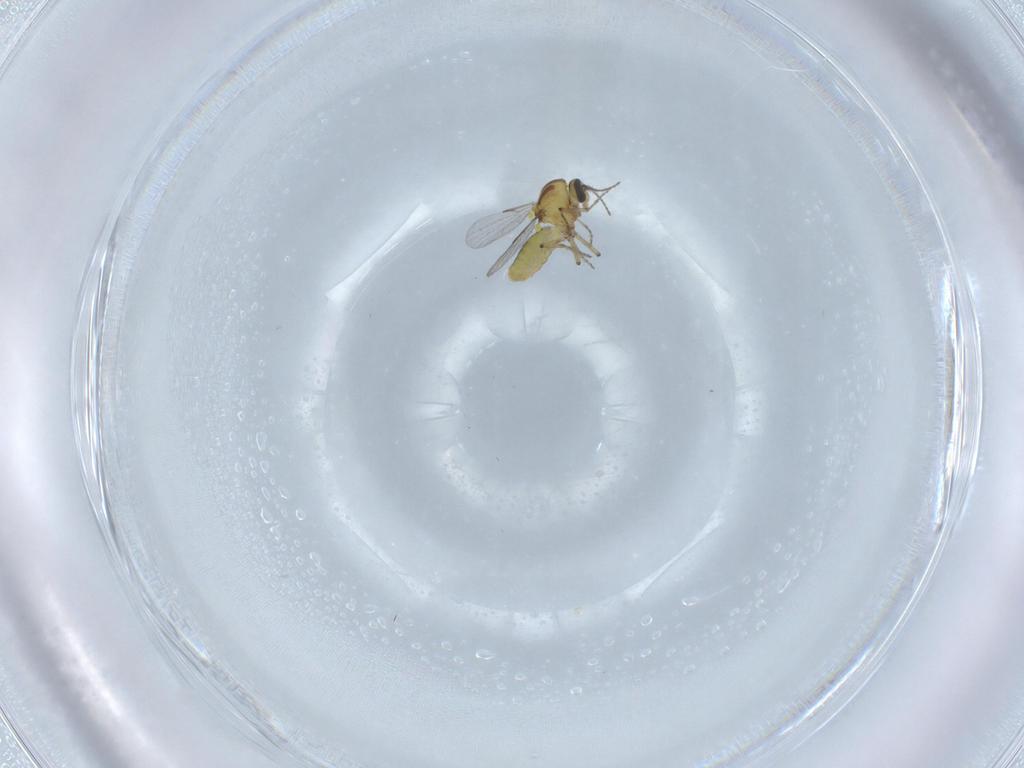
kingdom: Animalia
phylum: Arthropoda
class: Insecta
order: Diptera
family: Ceratopogonidae
